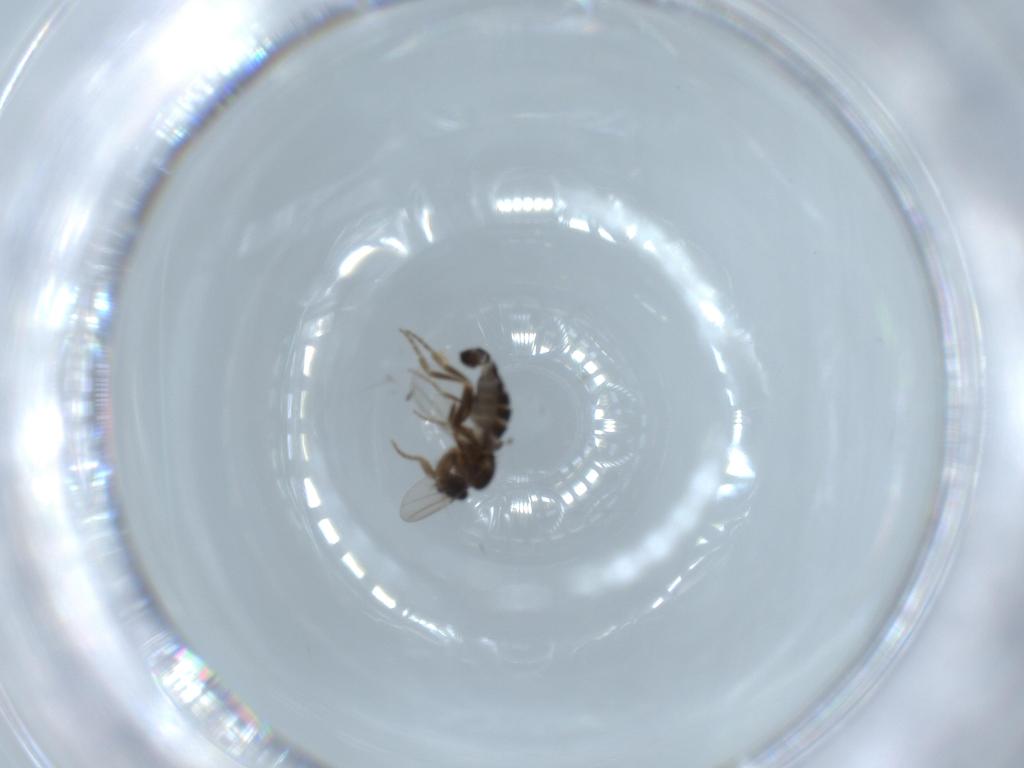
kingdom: Animalia
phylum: Arthropoda
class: Insecta
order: Diptera
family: Phoridae
